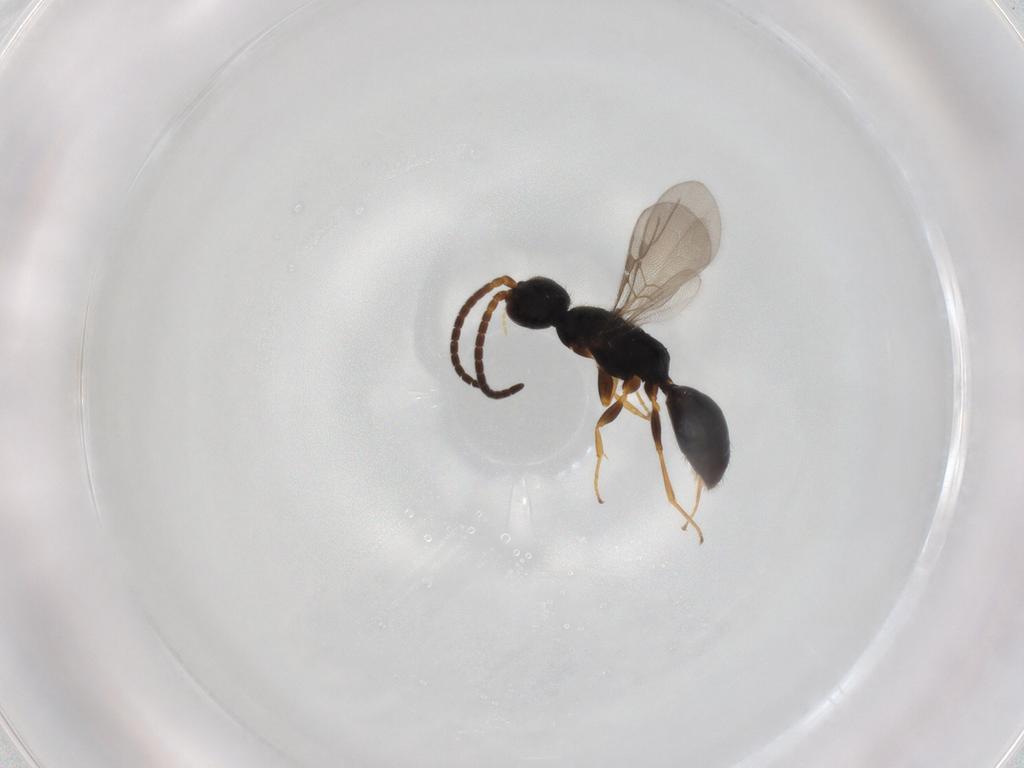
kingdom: Animalia
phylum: Arthropoda
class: Insecta
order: Hymenoptera
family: Bethylidae
